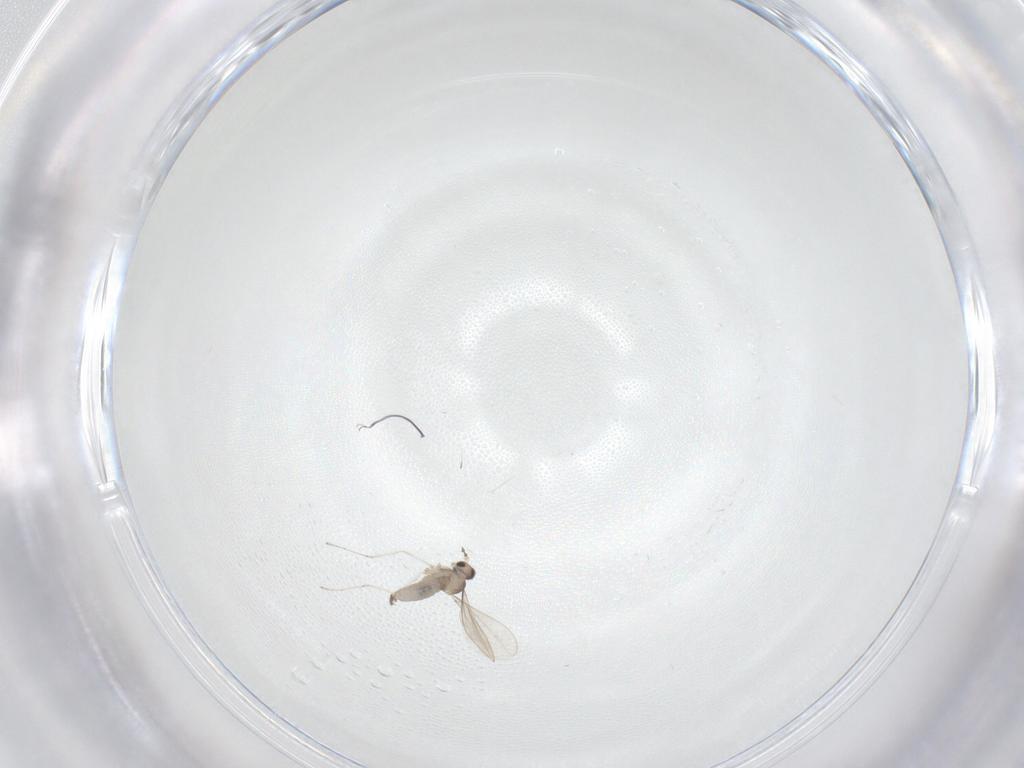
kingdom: Animalia
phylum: Arthropoda
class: Insecta
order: Diptera
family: Cecidomyiidae
